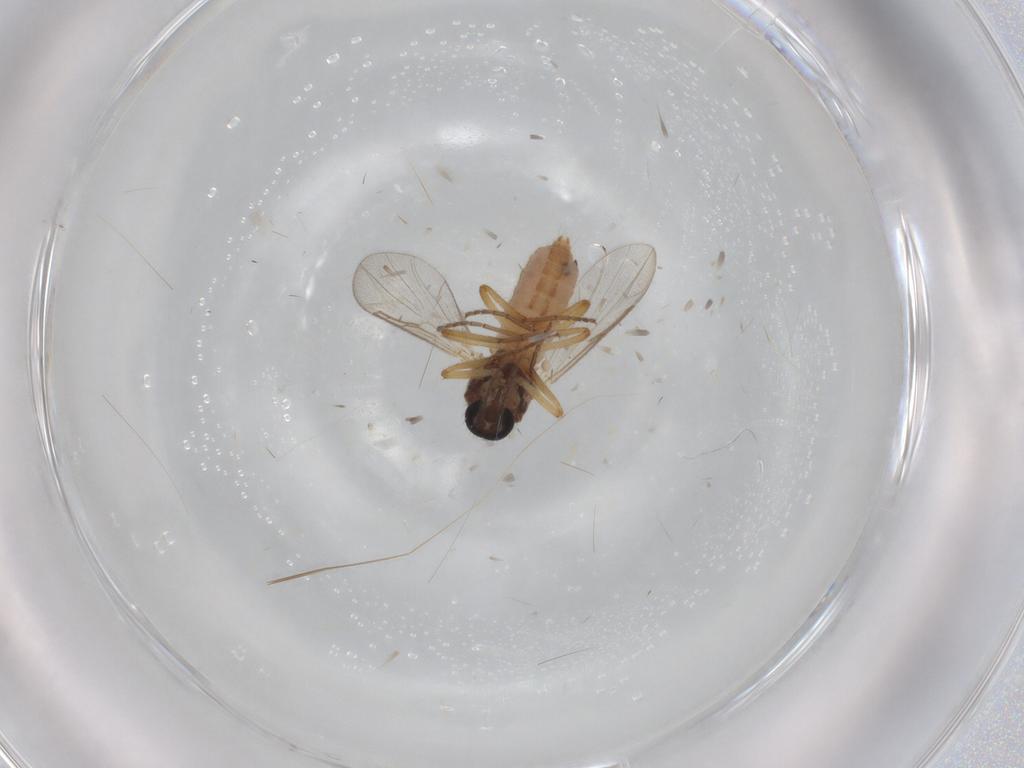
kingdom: Animalia
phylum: Arthropoda
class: Insecta
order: Diptera
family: Ceratopogonidae
